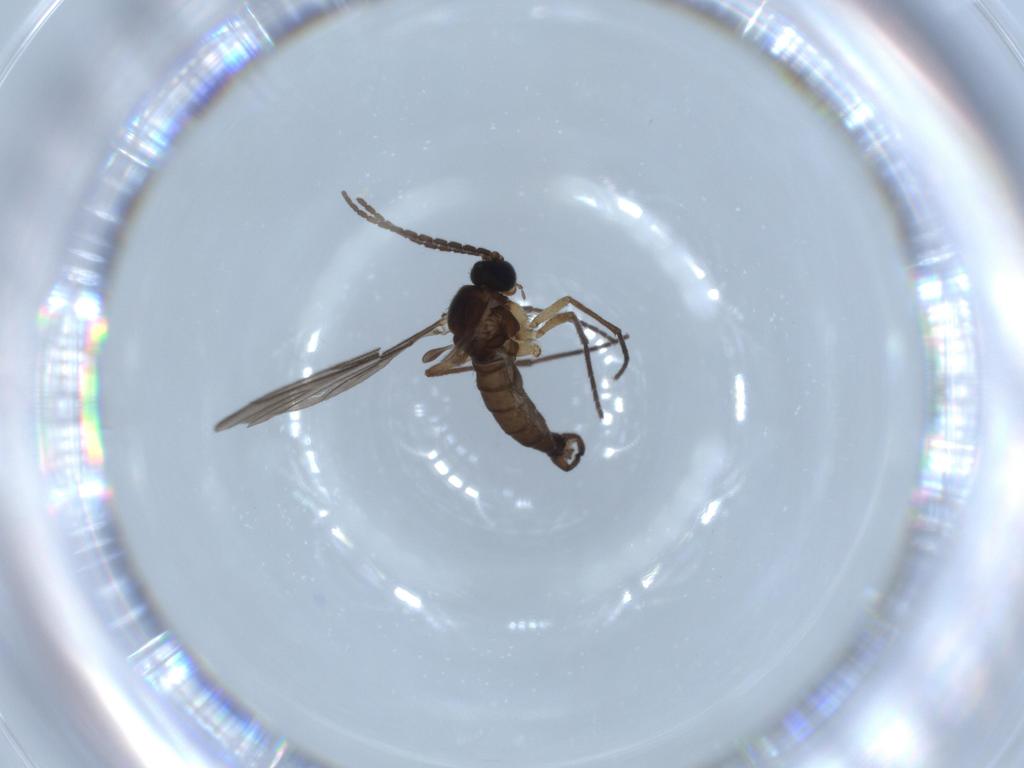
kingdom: Animalia
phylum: Arthropoda
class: Insecta
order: Diptera
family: Sciaridae
